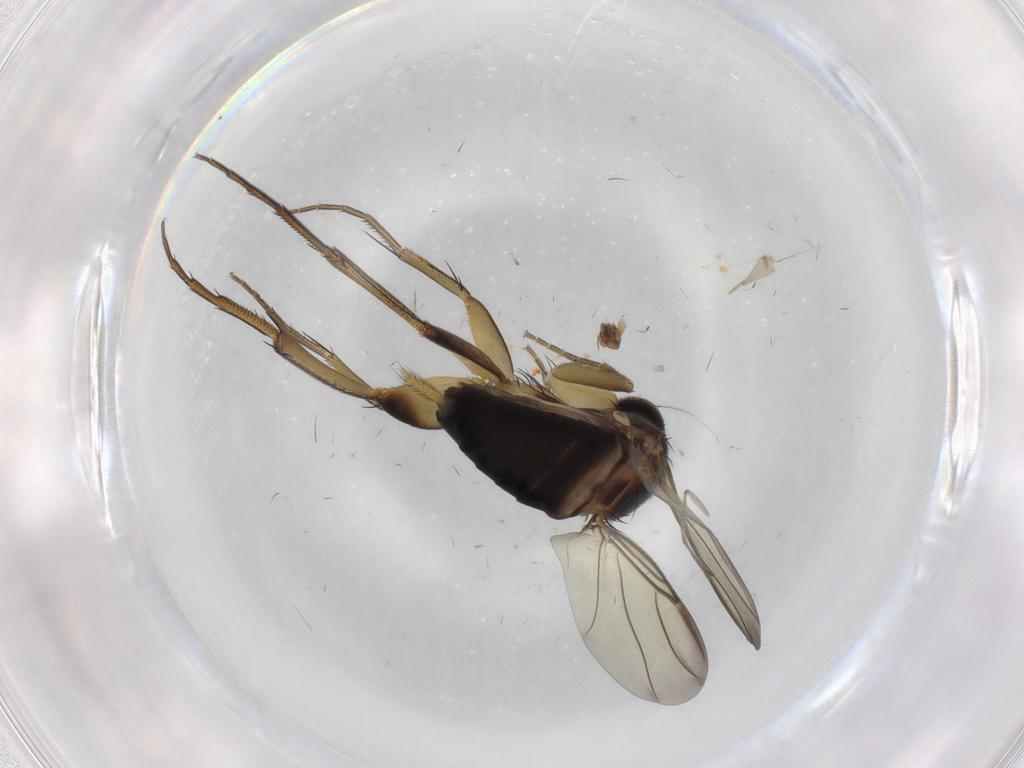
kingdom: Animalia
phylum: Arthropoda
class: Insecta
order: Diptera
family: Phoridae
